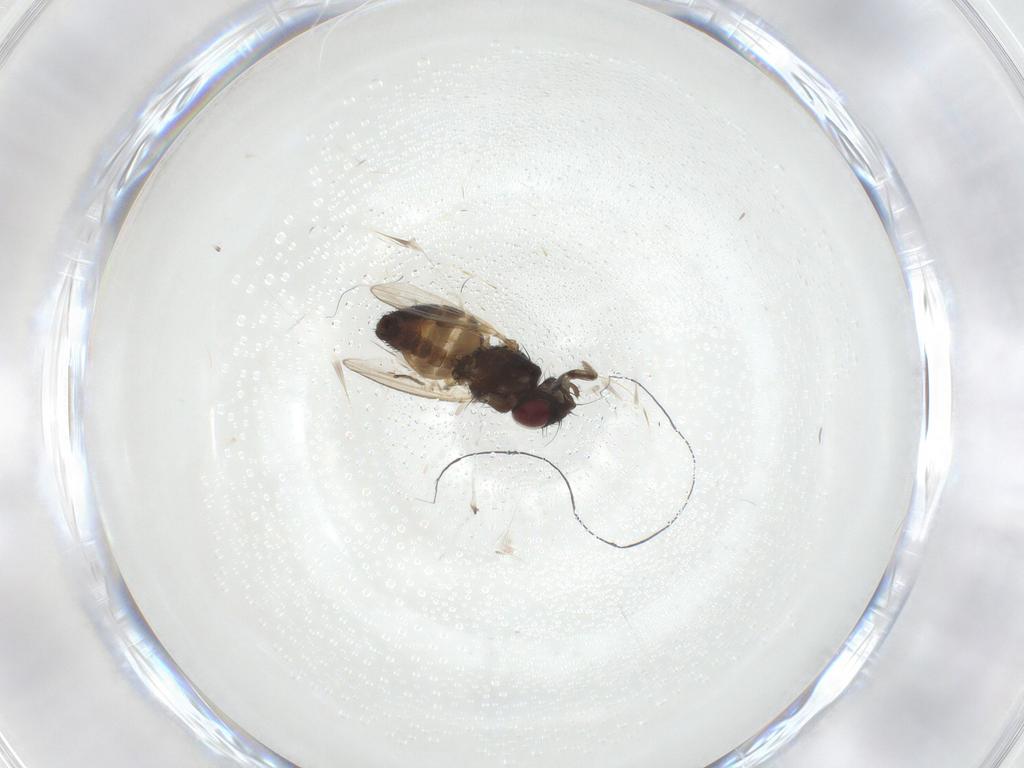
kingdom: Animalia
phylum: Arthropoda
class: Insecta
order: Diptera
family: Milichiidae
